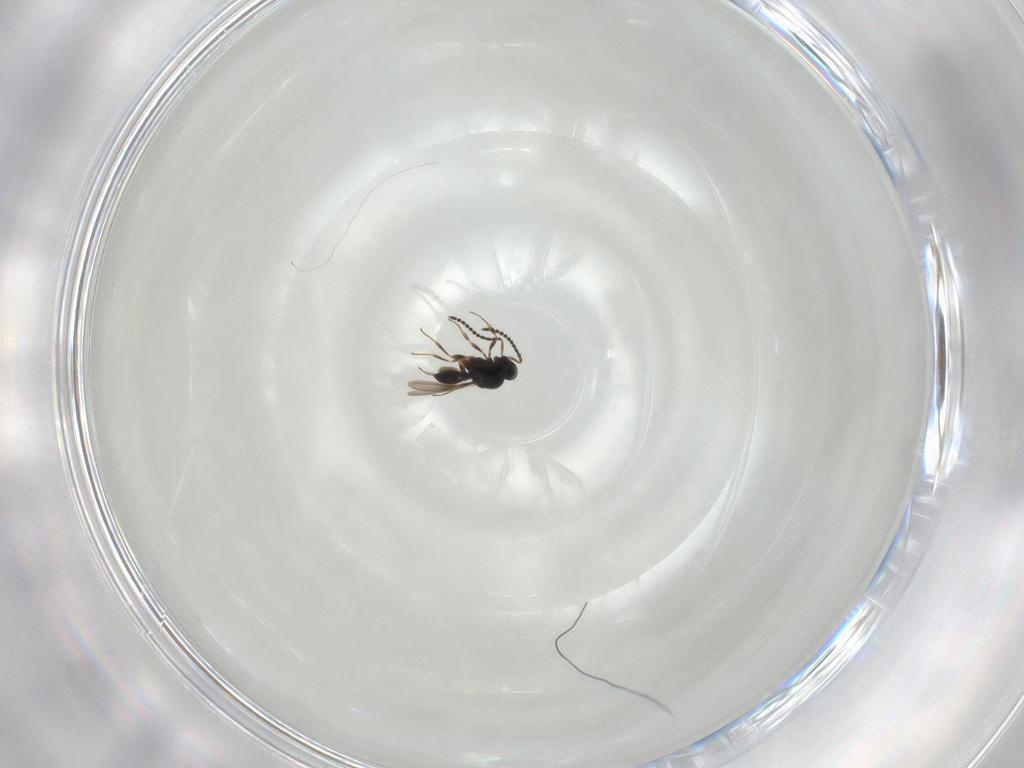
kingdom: Animalia
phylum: Arthropoda
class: Insecta
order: Hymenoptera
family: Scelionidae
